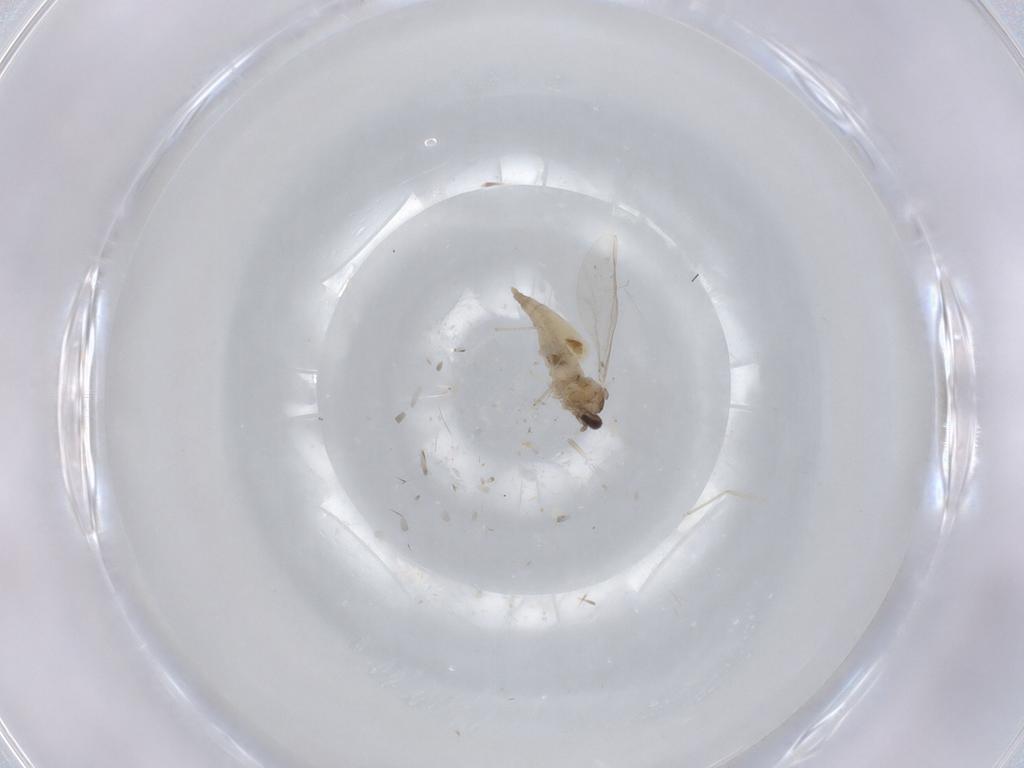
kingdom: Animalia
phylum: Arthropoda
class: Insecta
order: Diptera
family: Cecidomyiidae
